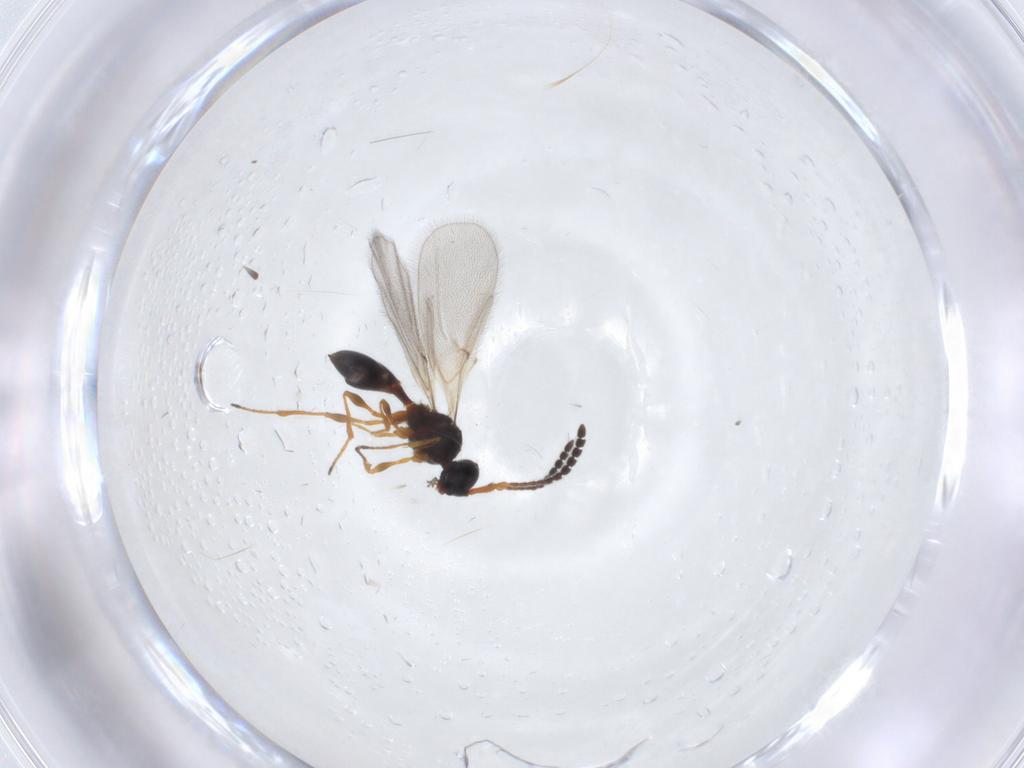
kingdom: Animalia
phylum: Arthropoda
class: Insecta
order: Hymenoptera
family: Diapriidae
